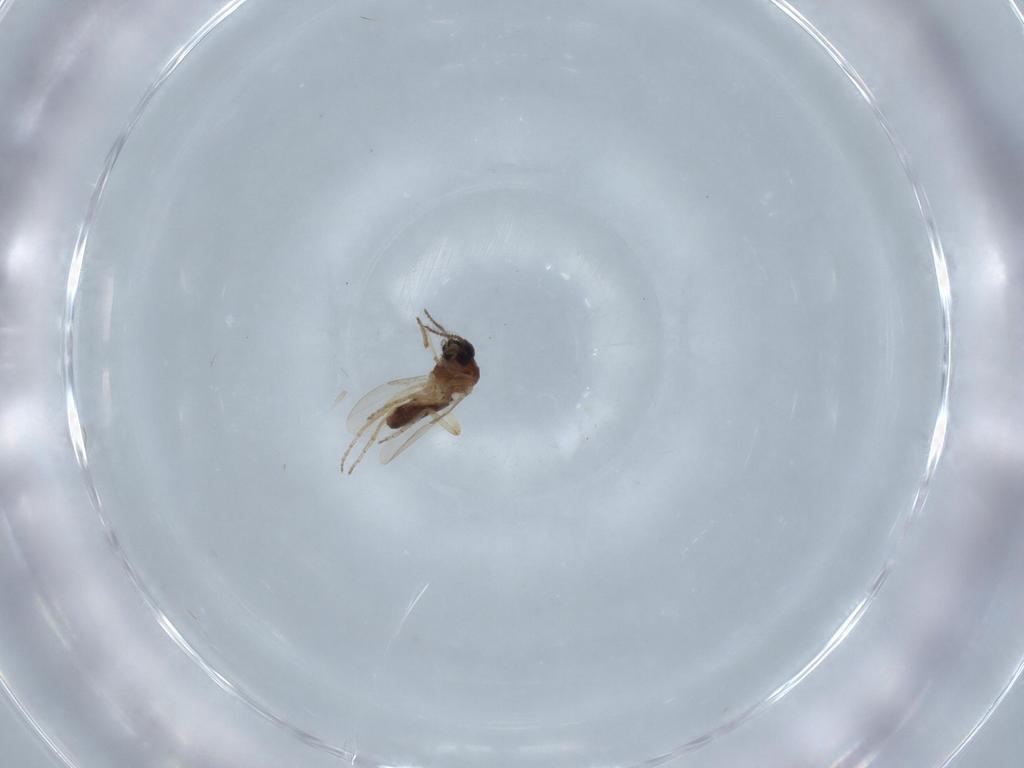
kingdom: Animalia
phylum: Arthropoda
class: Insecta
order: Diptera
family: Ceratopogonidae
